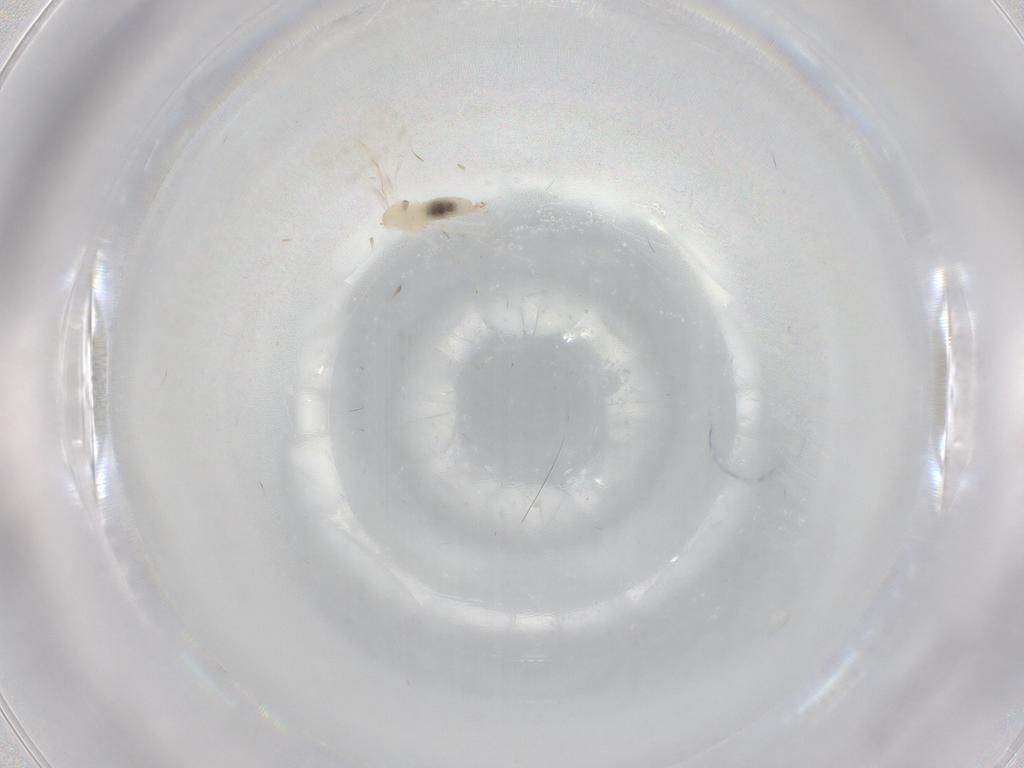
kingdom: Animalia
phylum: Arthropoda
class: Insecta
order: Diptera
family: Cecidomyiidae
